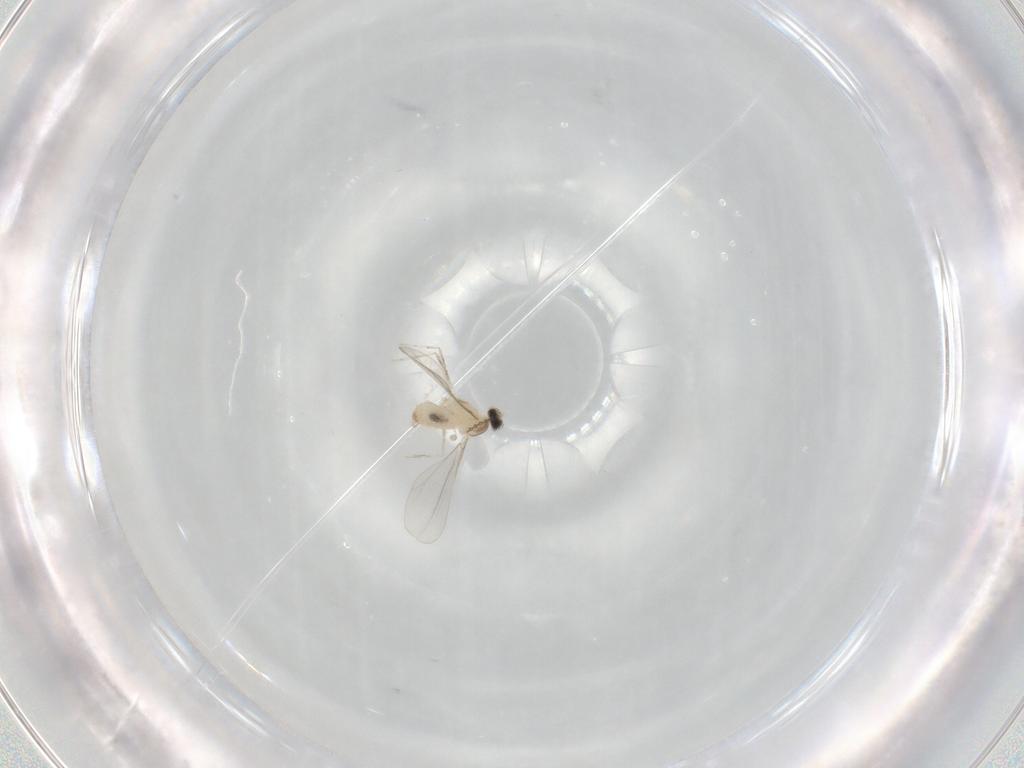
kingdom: Animalia
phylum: Arthropoda
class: Insecta
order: Diptera
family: Cecidomyiidae
